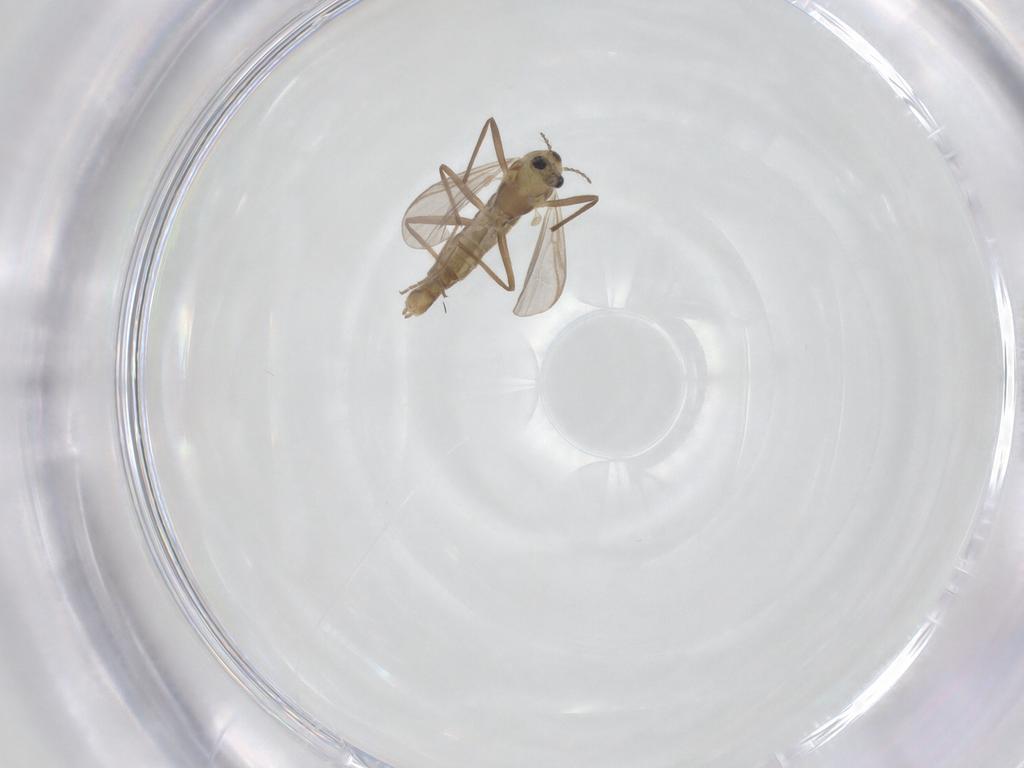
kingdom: Animalia
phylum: Arthropoda
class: Insecta
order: Diptera
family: Chironomidae
